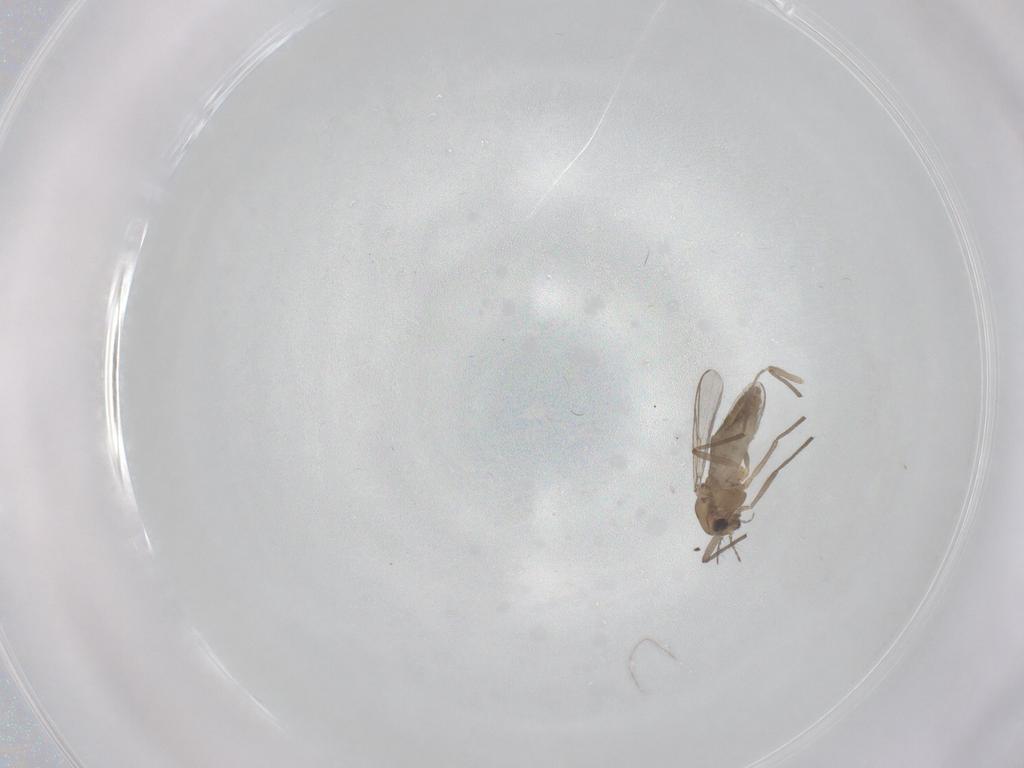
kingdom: Animalia
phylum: Arthropoda
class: Insecta
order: Diptera
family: Chironomidae
